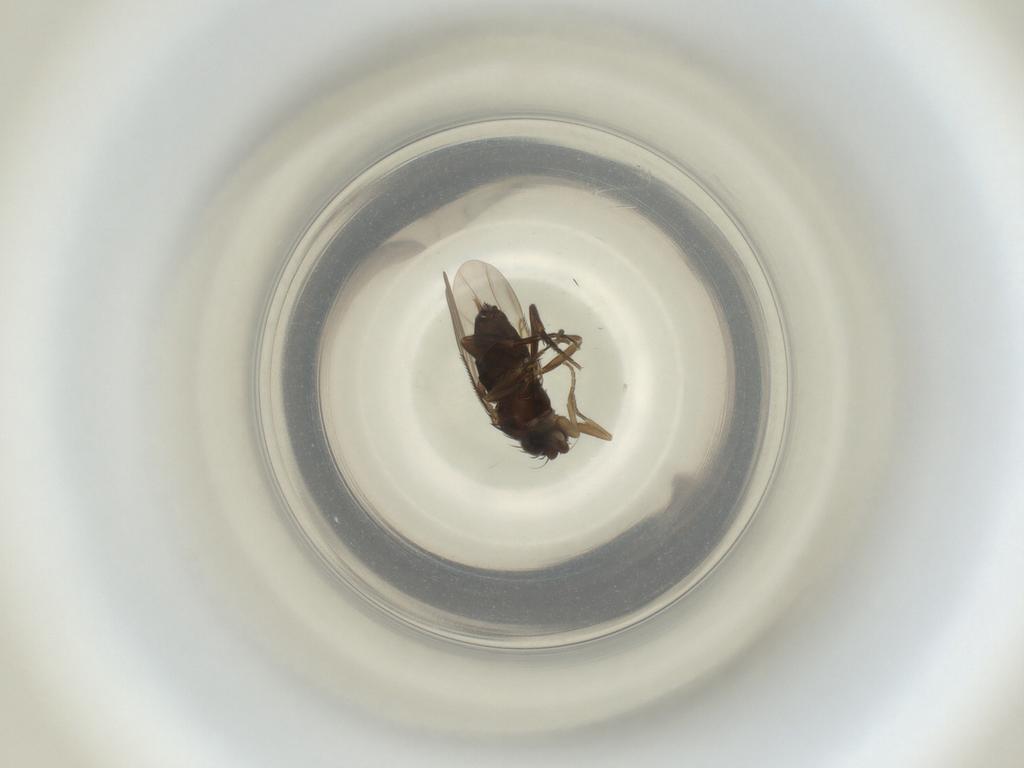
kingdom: Animalia
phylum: Arthropoda
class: Insecta
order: Diptera
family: Phoridae
